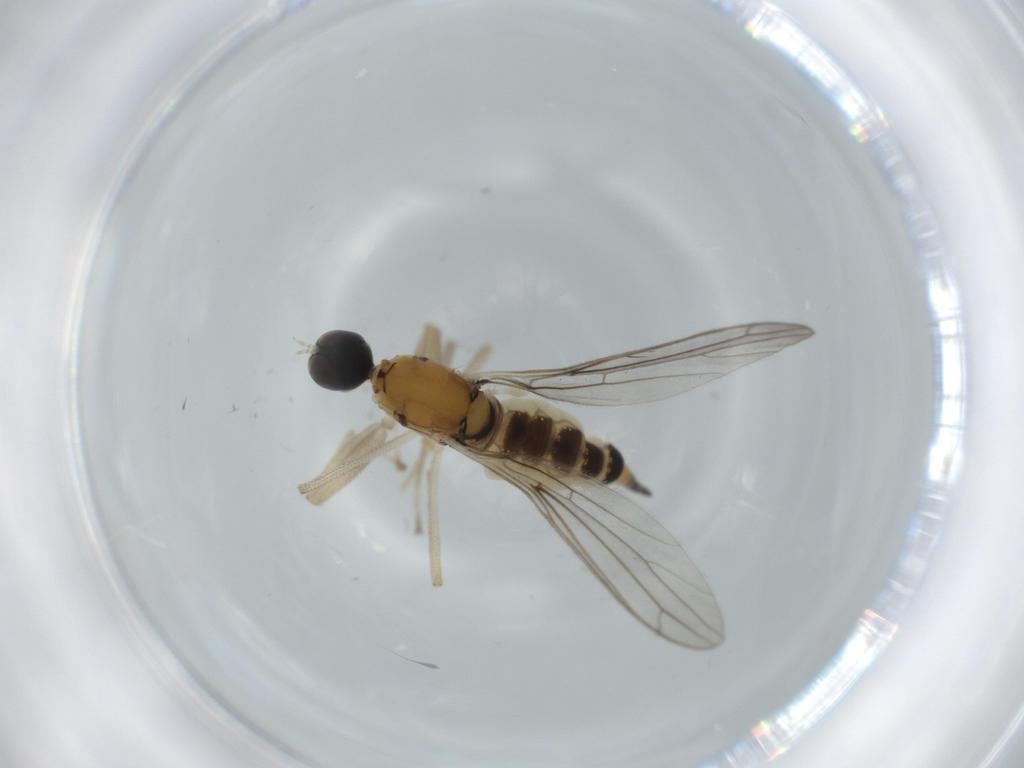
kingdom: Animalia
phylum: Arthropoda
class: Insecta
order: Diptera
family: Empididae
